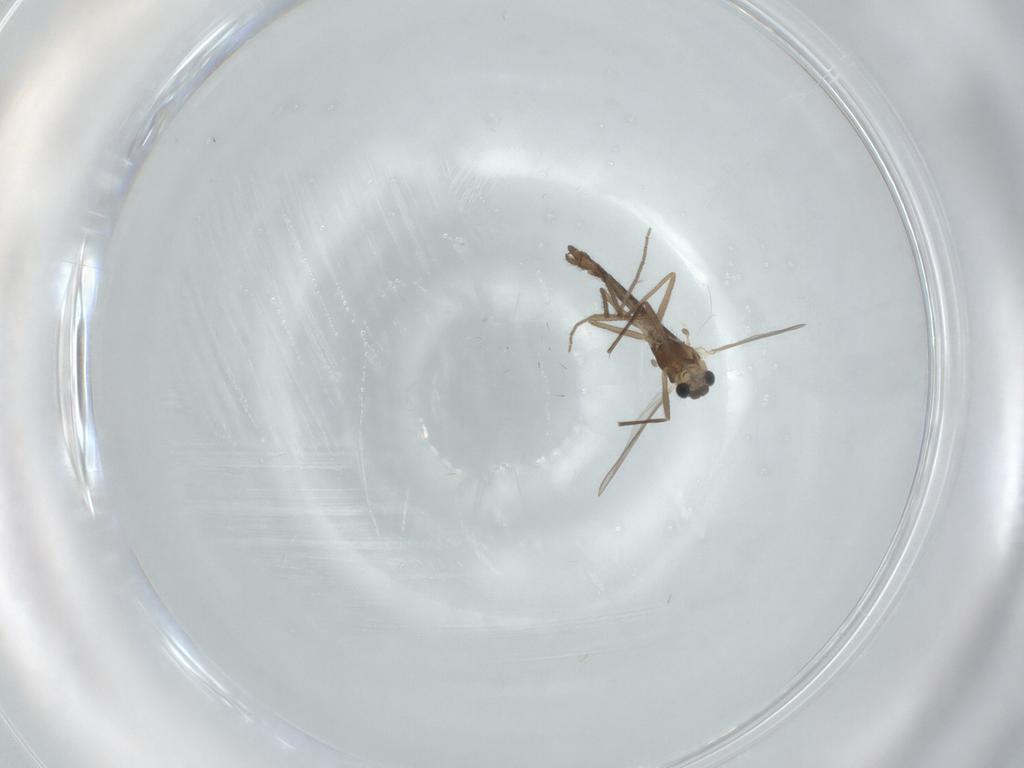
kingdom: Animalia
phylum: Arthropoda
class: Insecta
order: Diptera
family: Chironomidae
